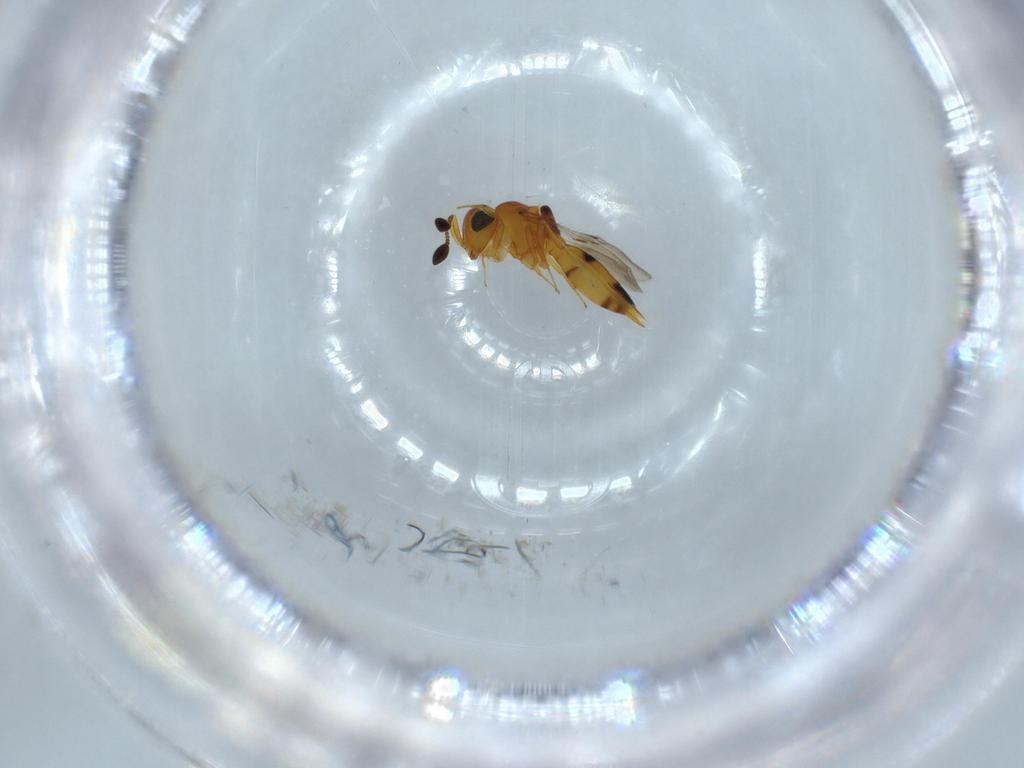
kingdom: Animalia
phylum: Arthropoda
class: Insecta
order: Hymenoptera
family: Scelionidae
